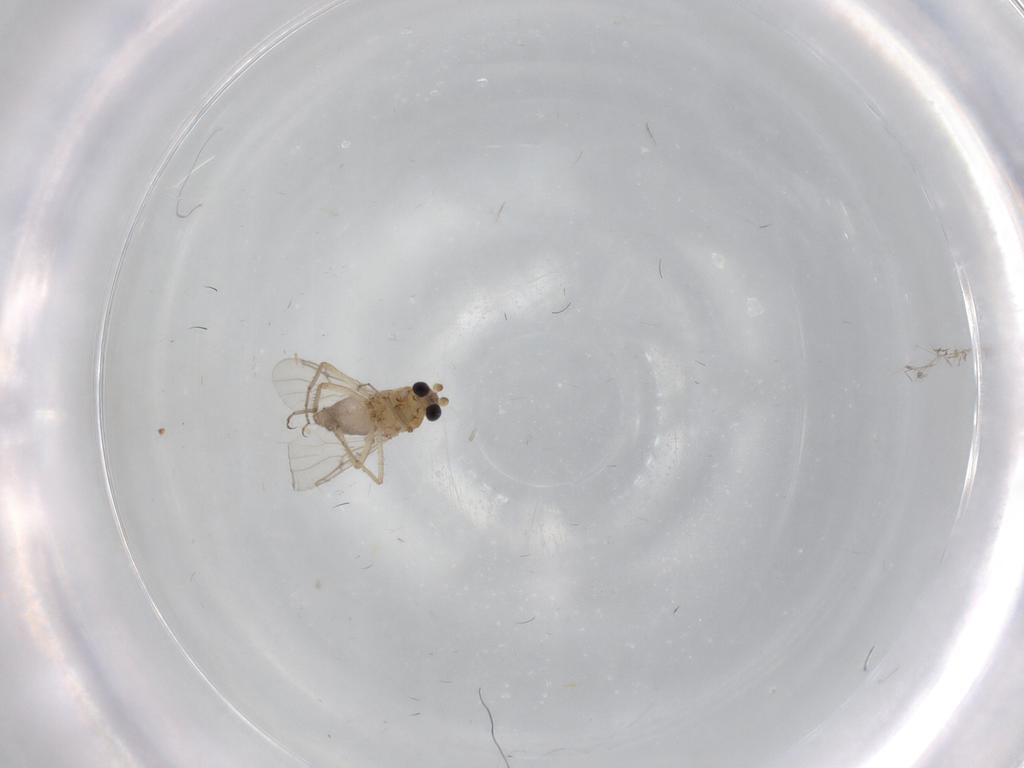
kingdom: Animalia
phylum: Arthropoda
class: Insecta
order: Diptera
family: Ceratopogonidae
